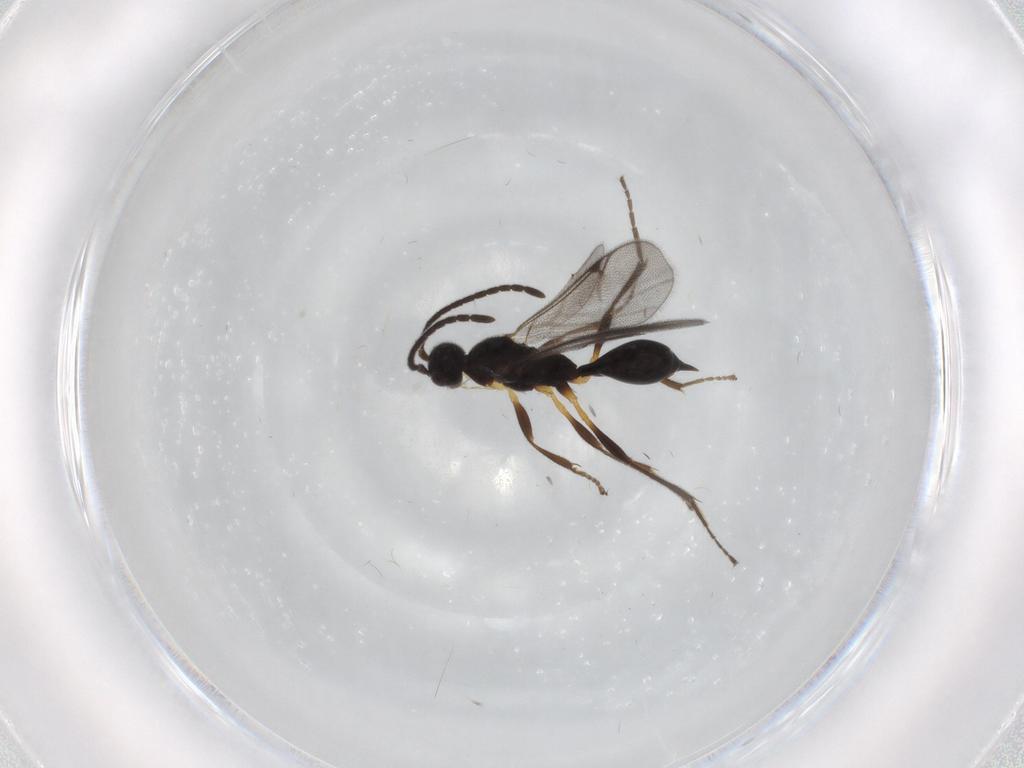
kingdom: Animalia
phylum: Arthropoda
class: Insecta
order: Hymenoptera
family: Proctotrupidae
